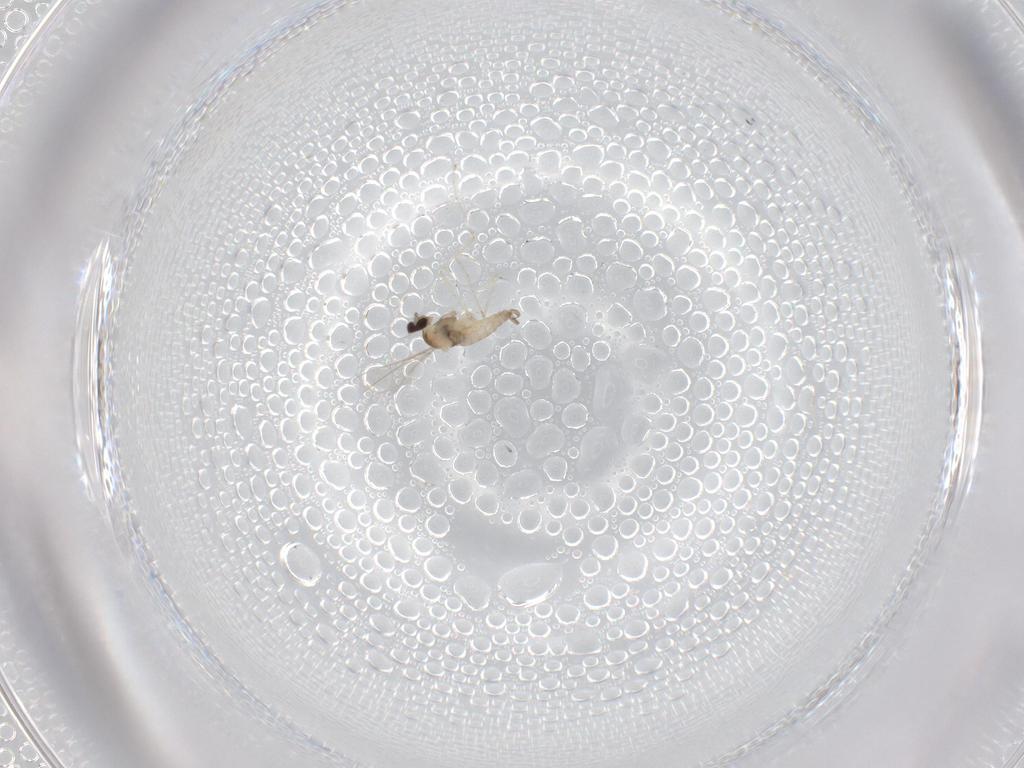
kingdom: Animalia
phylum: Arthropoda
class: Insecta
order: Diptera
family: Cecidomyiidae
